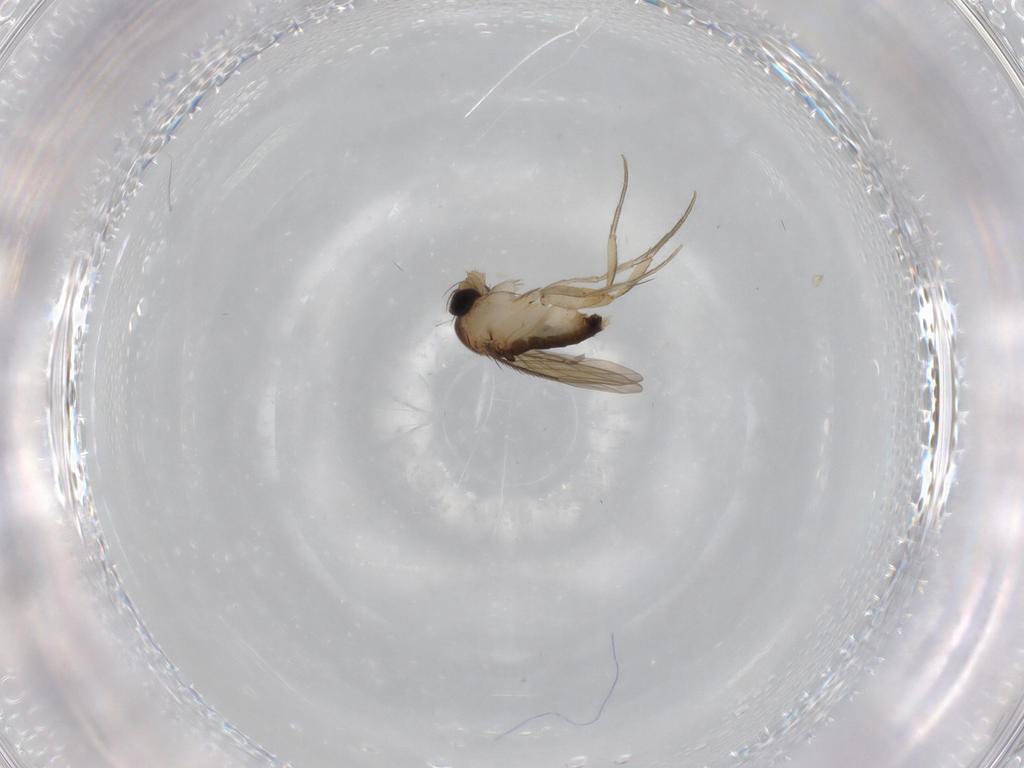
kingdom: Animalia
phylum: Arthropoda
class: Insecta
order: Diptera
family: Phoridae
